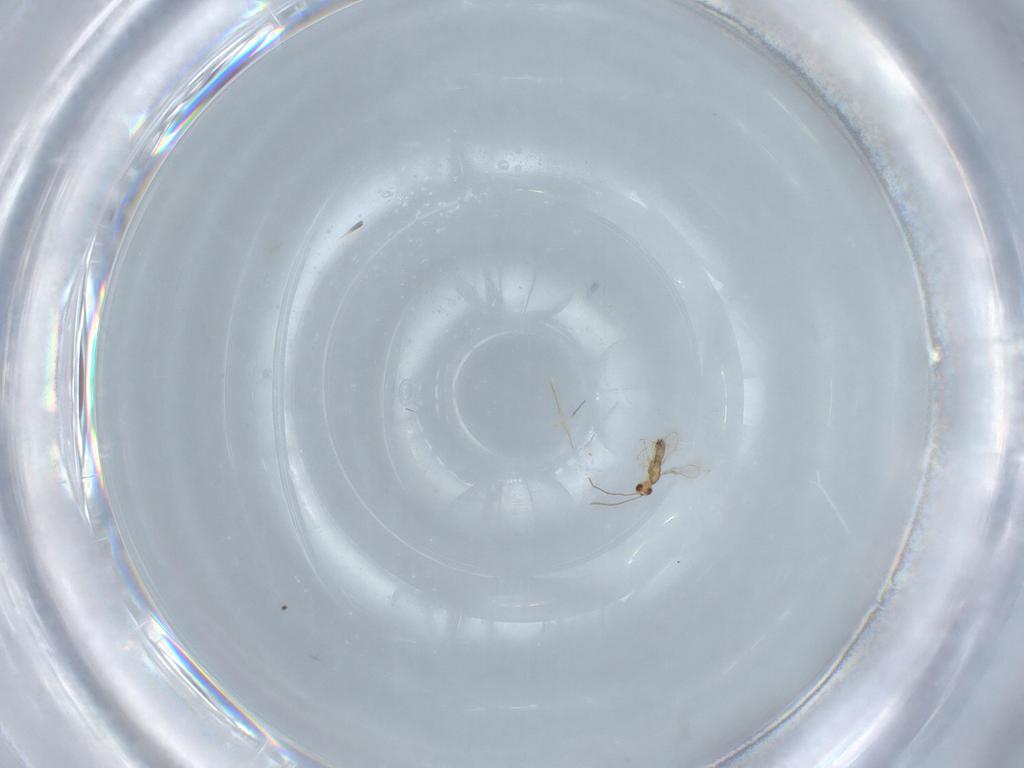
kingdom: Animalia
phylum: Arthropoda
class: Insecta
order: Hymenoptera
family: Mymaridae
